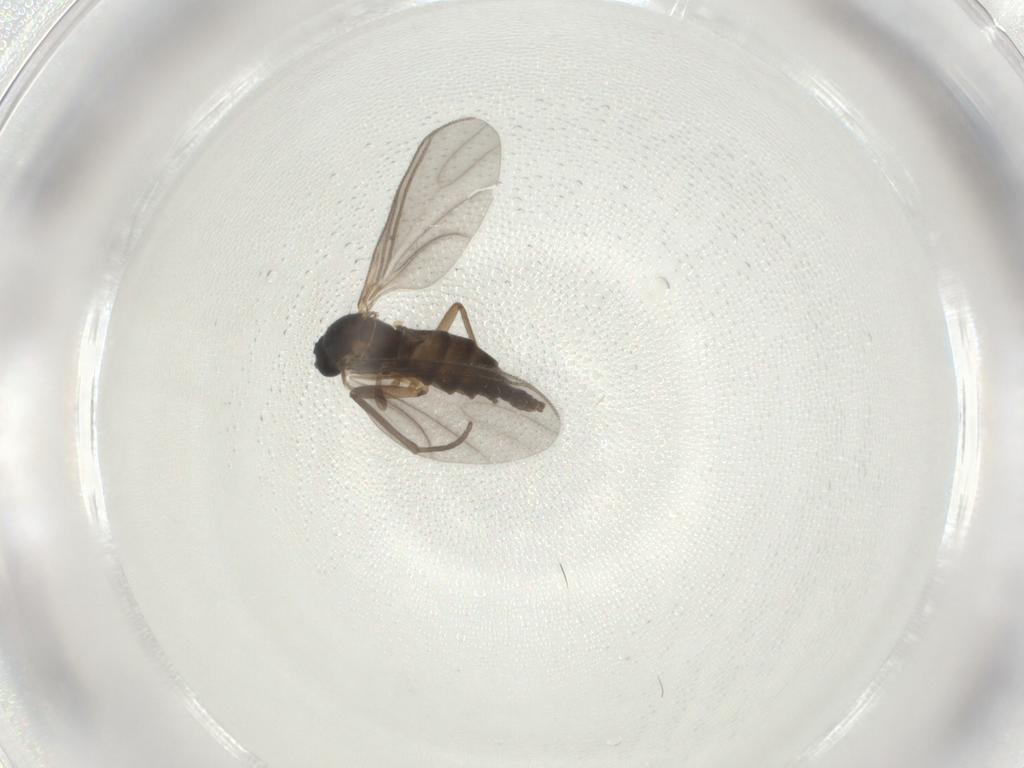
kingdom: Animalia
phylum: Arthropoda
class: Insecta
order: Diptera
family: Sciaridae
